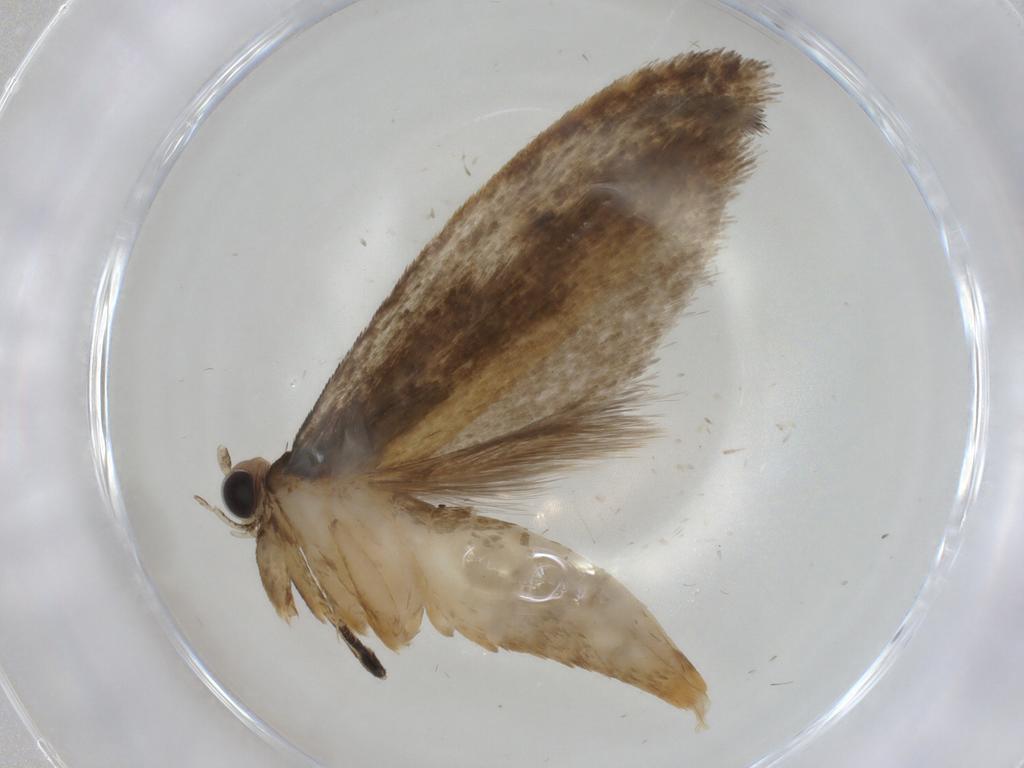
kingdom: Animalia
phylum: Arthropoda
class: Insecta
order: Lepidoptera
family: Tineidae
